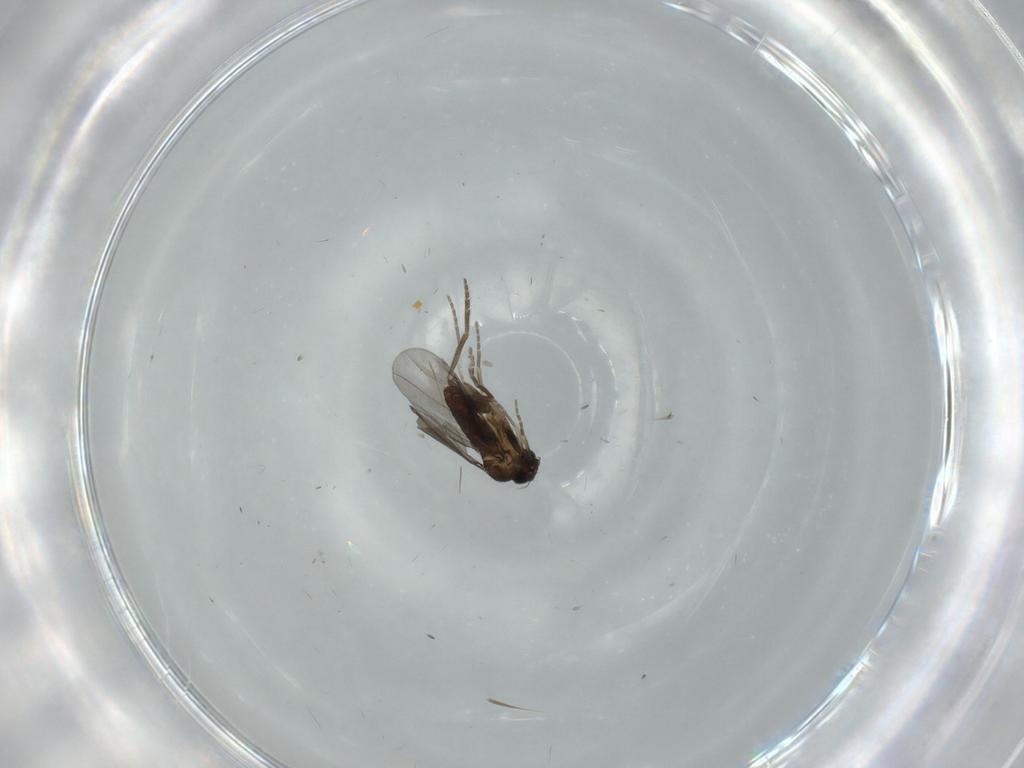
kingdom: Animalia
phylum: Arthropoda
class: Insecta
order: Diptera
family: Phoridae
